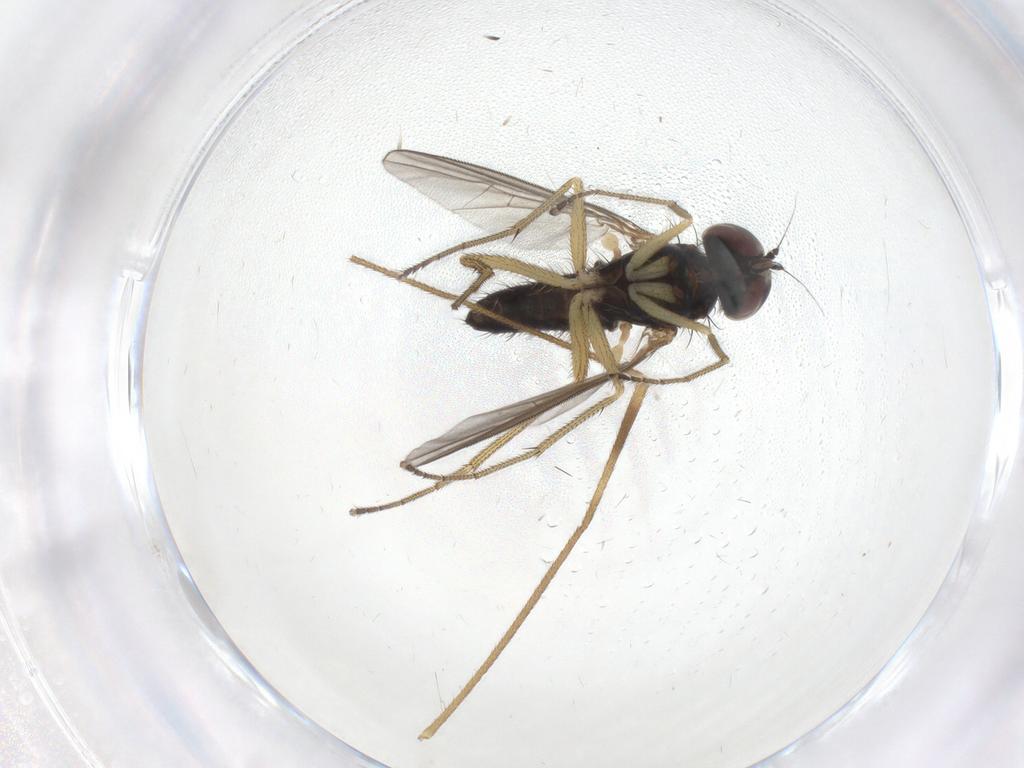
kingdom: Animalia
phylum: Arthropoda
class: Insecta
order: Diptera
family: Dolichopodidae
